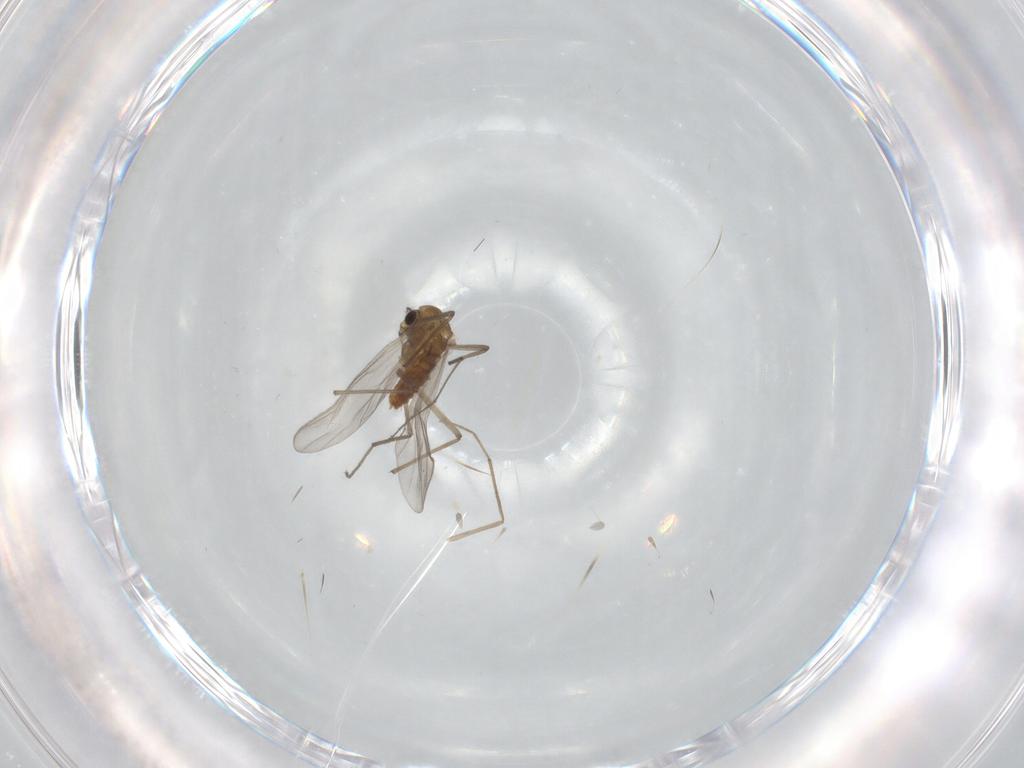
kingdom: Animalia
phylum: Arthropoda
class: Insecta
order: Diptera
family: Chironomidae
